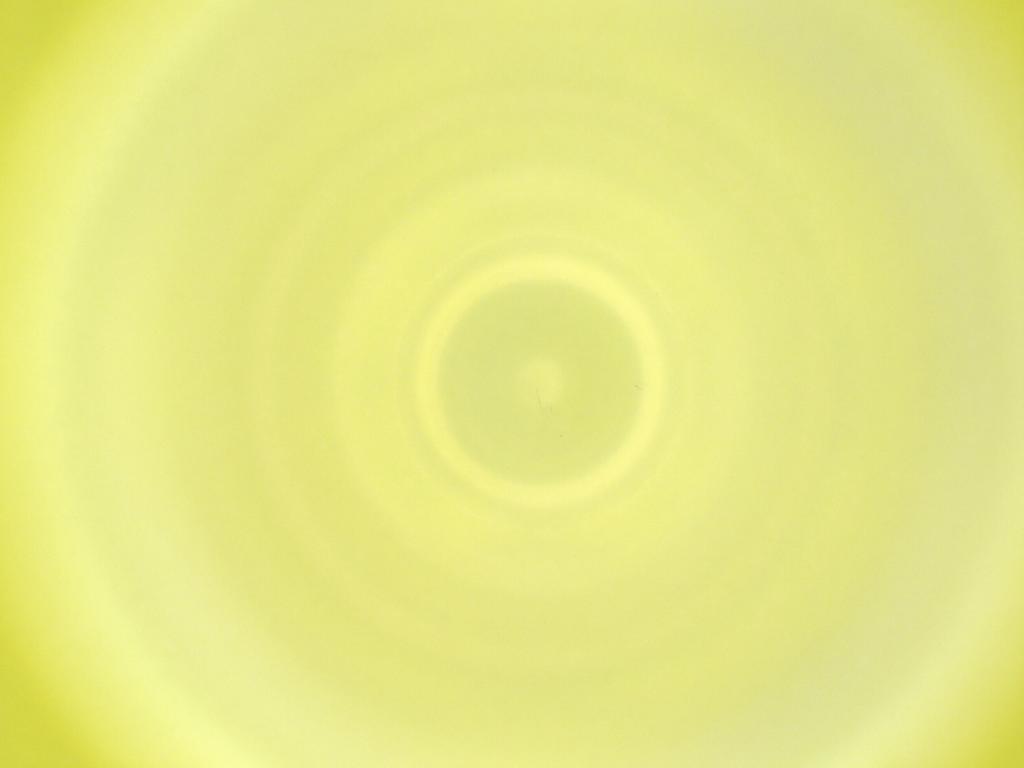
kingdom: Animalia
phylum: Arthropoda
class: Insecta
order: Diptera
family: Cecidomyiidae
